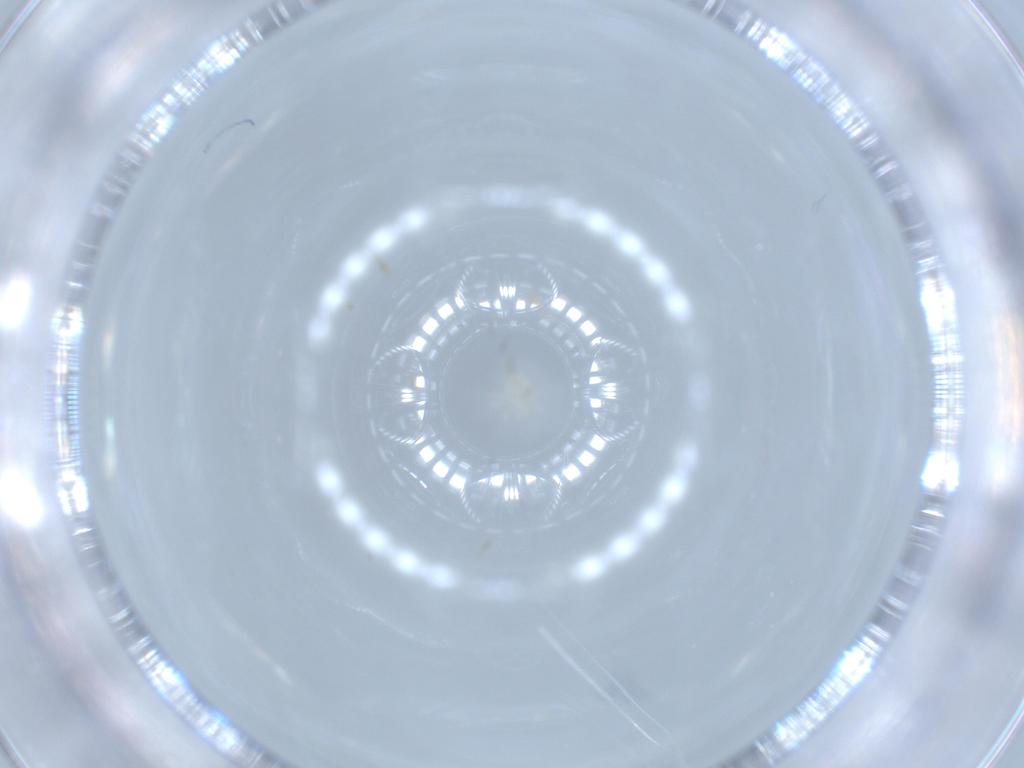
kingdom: Animalia
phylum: Arthropoda
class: Arachnida
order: Trombidiformes
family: Anystidae
